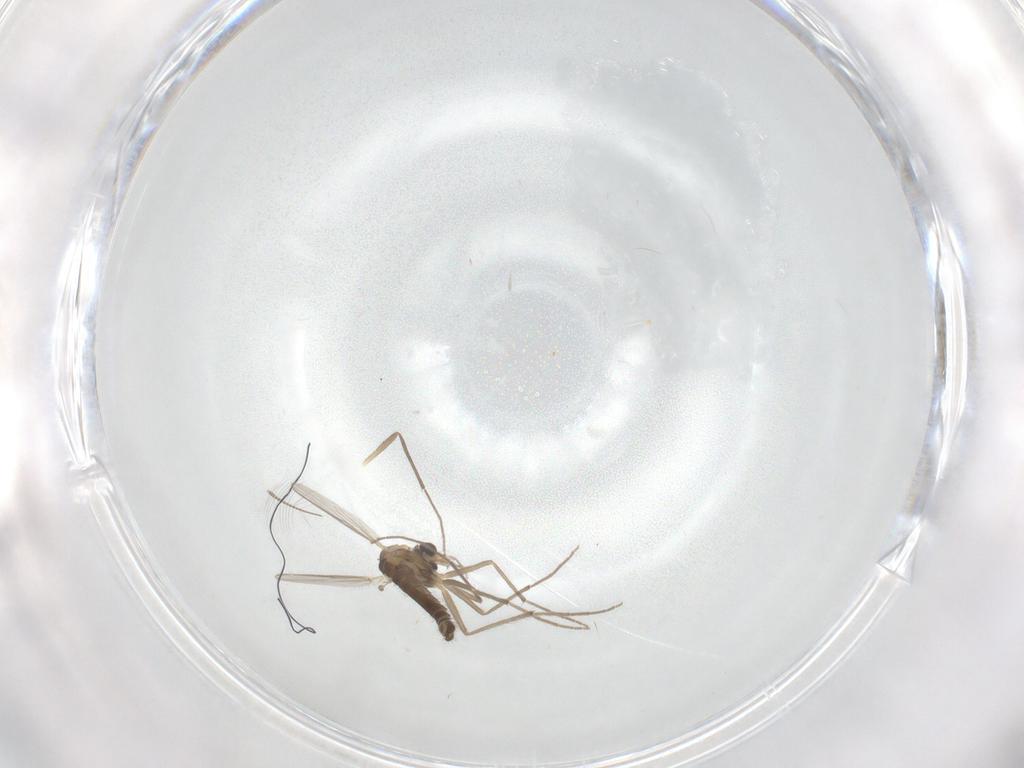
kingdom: Animalia
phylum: Arthropoda
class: Insecta
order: Diptera
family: Chironomidae
